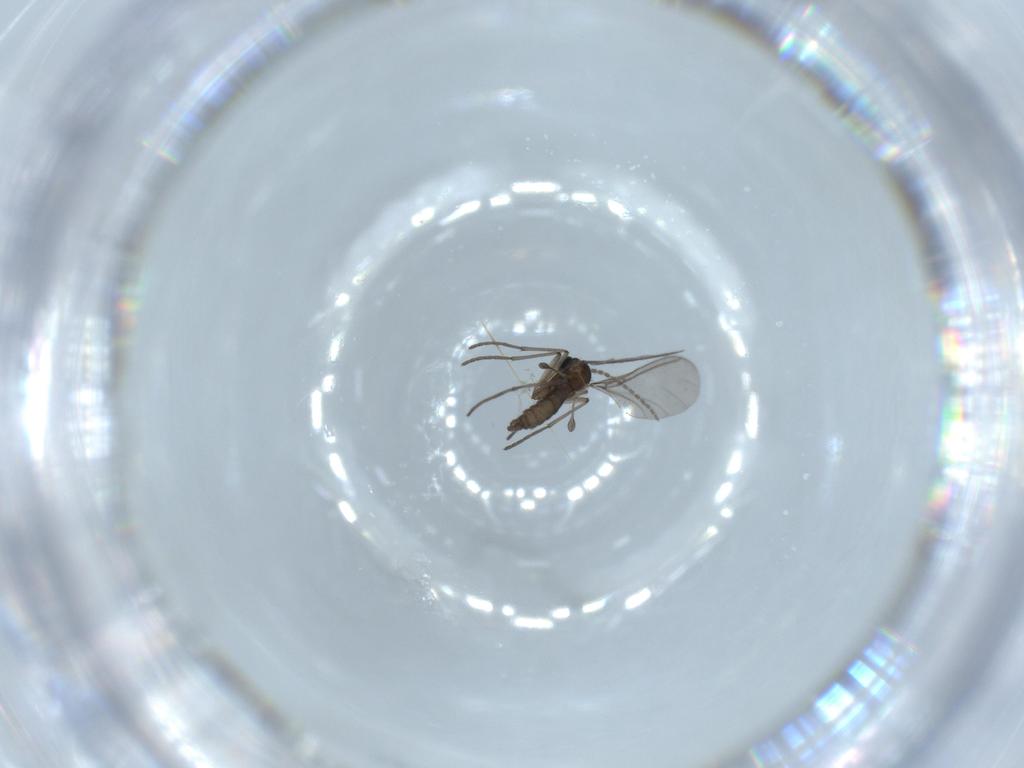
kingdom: Animalia
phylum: Arthropoda
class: Insecta
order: Diptera
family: Sciaridae
